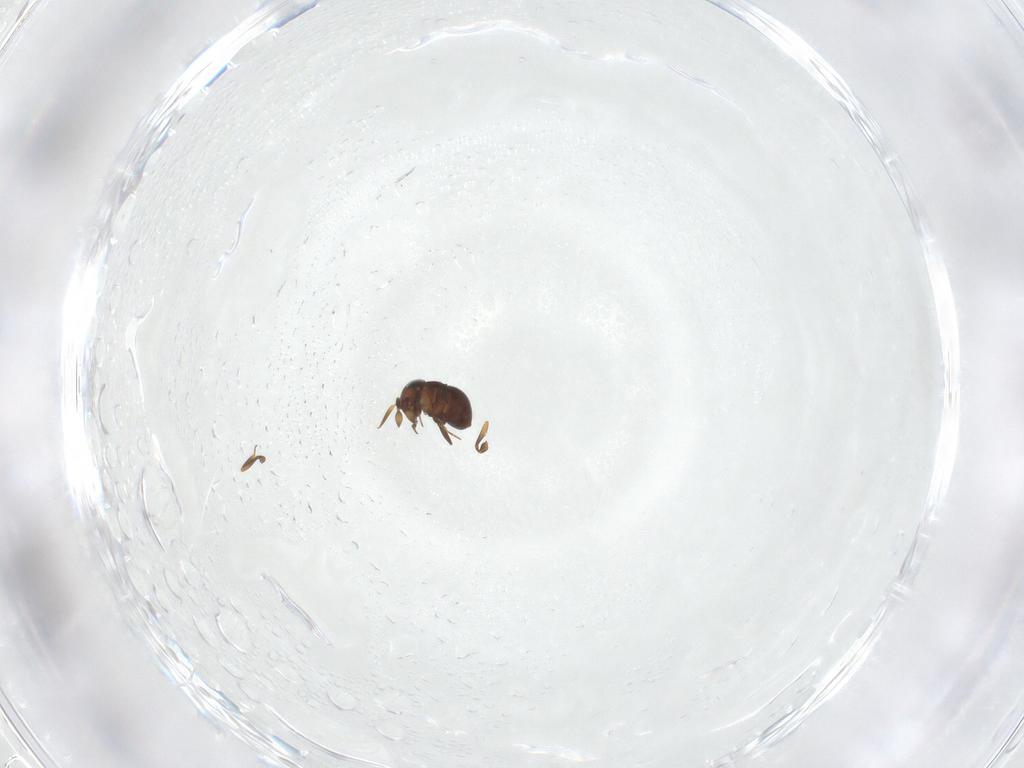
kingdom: Animalia
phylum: Arthropoda
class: Insecta
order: Hymenoptera
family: Scelionidae
